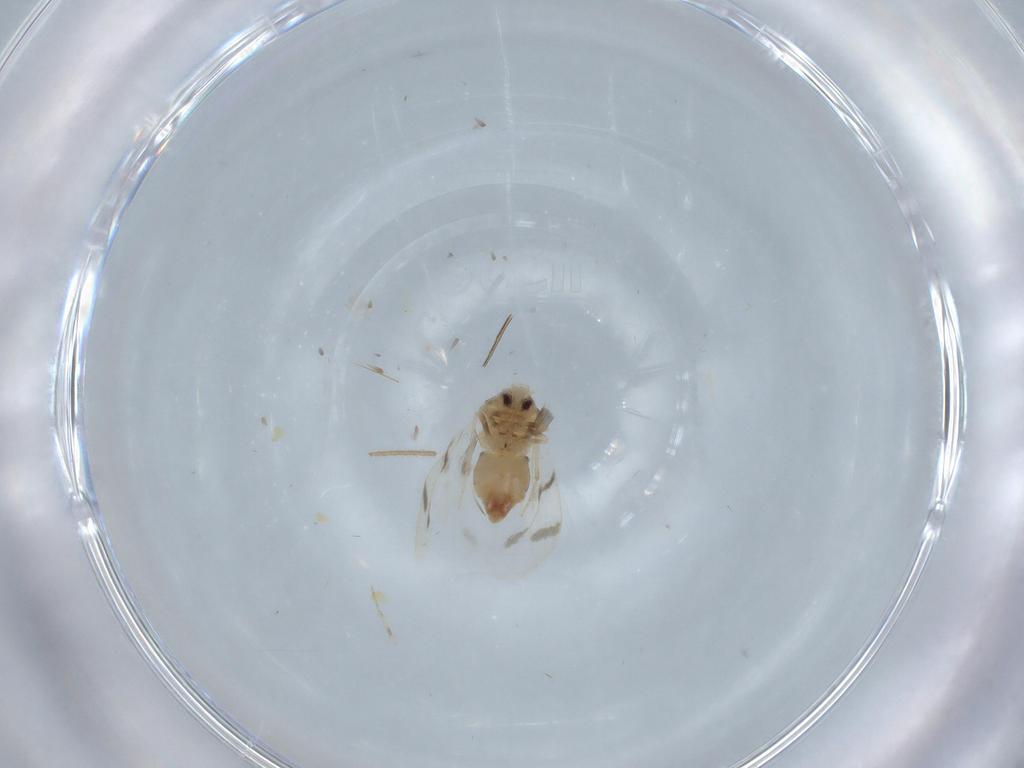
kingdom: Animalia
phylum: Arthropoda
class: Insecta
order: Diptera
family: Chironomidae
